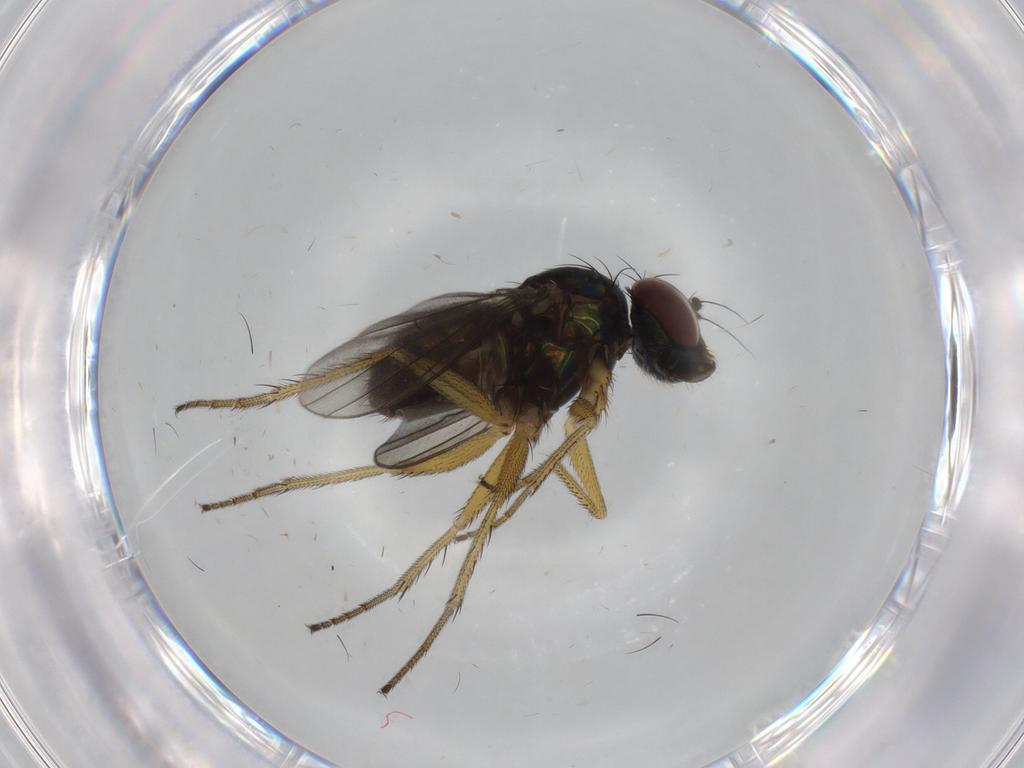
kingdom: Animalia
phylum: Arthropoda
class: Insecta
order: Diptera
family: Dolichopodidae
